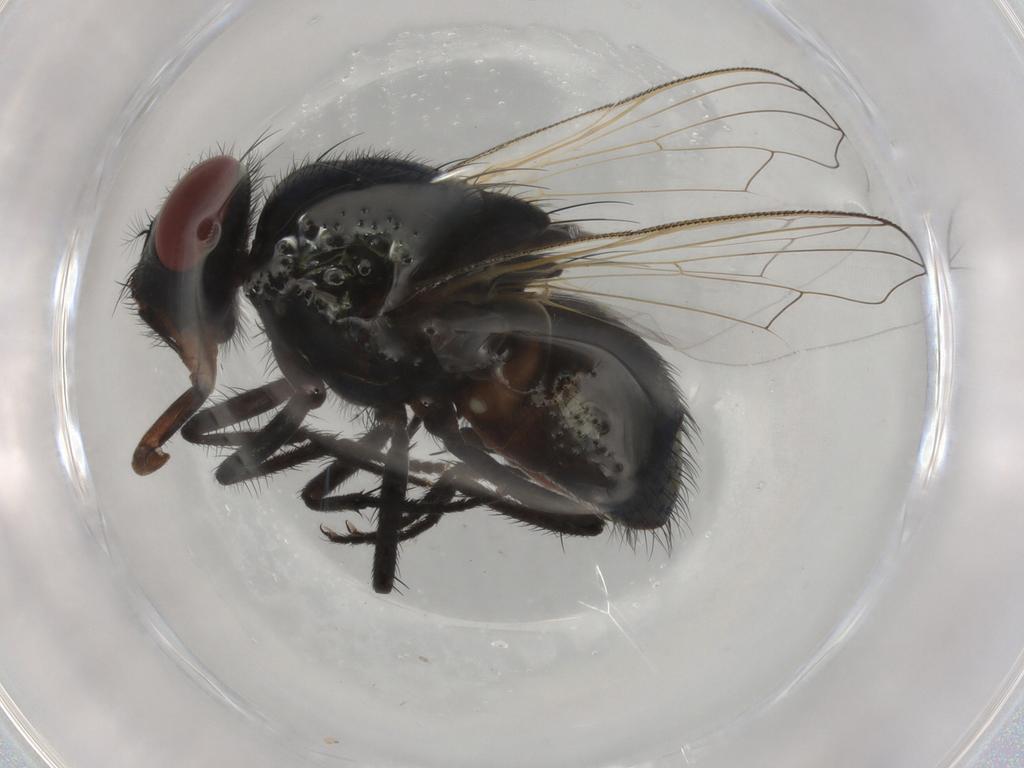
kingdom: Animalia
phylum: Arthropoda
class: Insecta
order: Diptera
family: Muscidae
